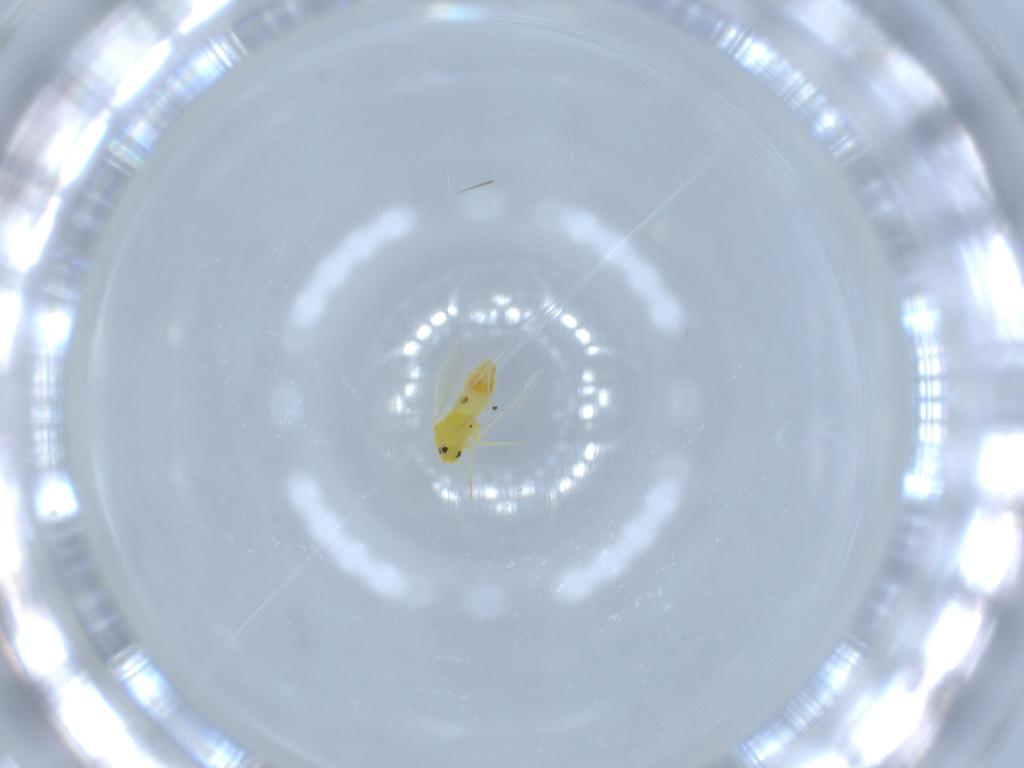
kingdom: Animalia
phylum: Arthropoda
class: Insecta
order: Hemiptera
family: Aleyrodidae
